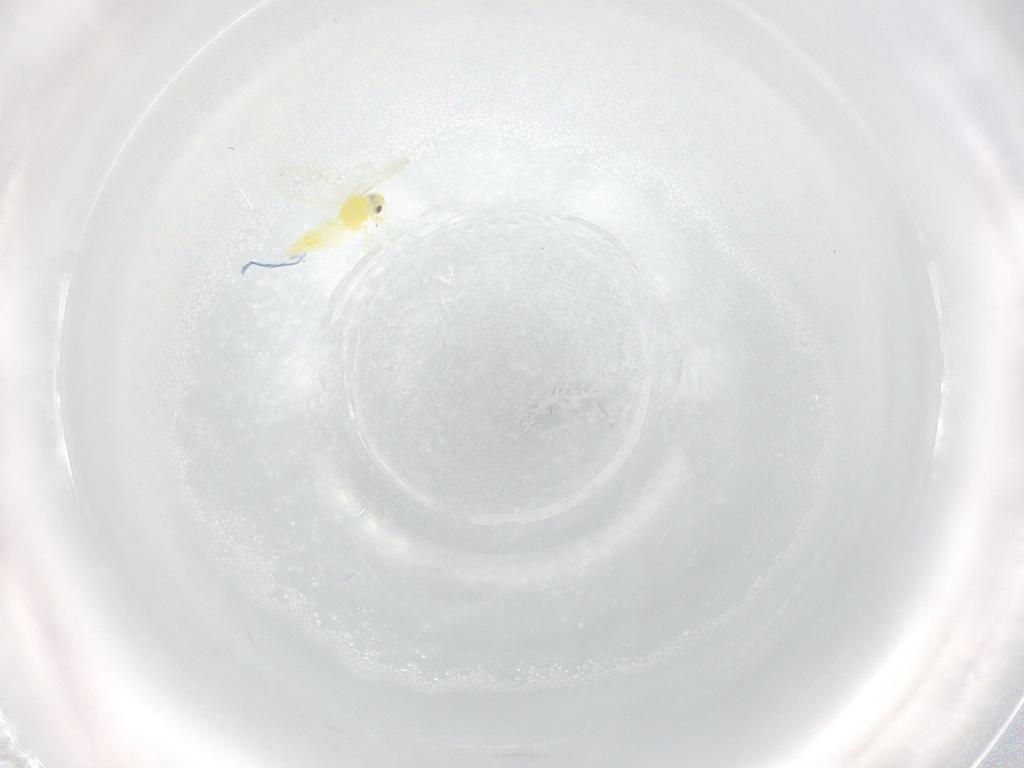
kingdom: Animalia
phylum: Arthropoda
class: Insecta
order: Hemiptera
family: Aleyrodidae
